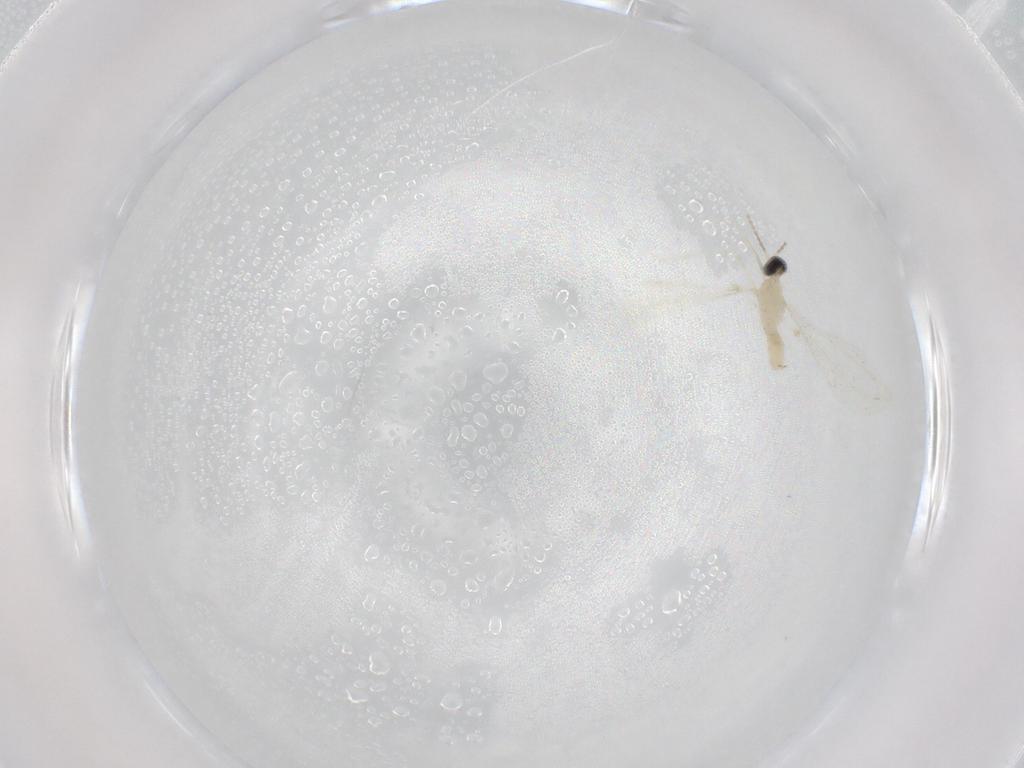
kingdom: Animalia
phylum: Arthropoda
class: Insecta
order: Diptera
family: Cecidomyiidae
